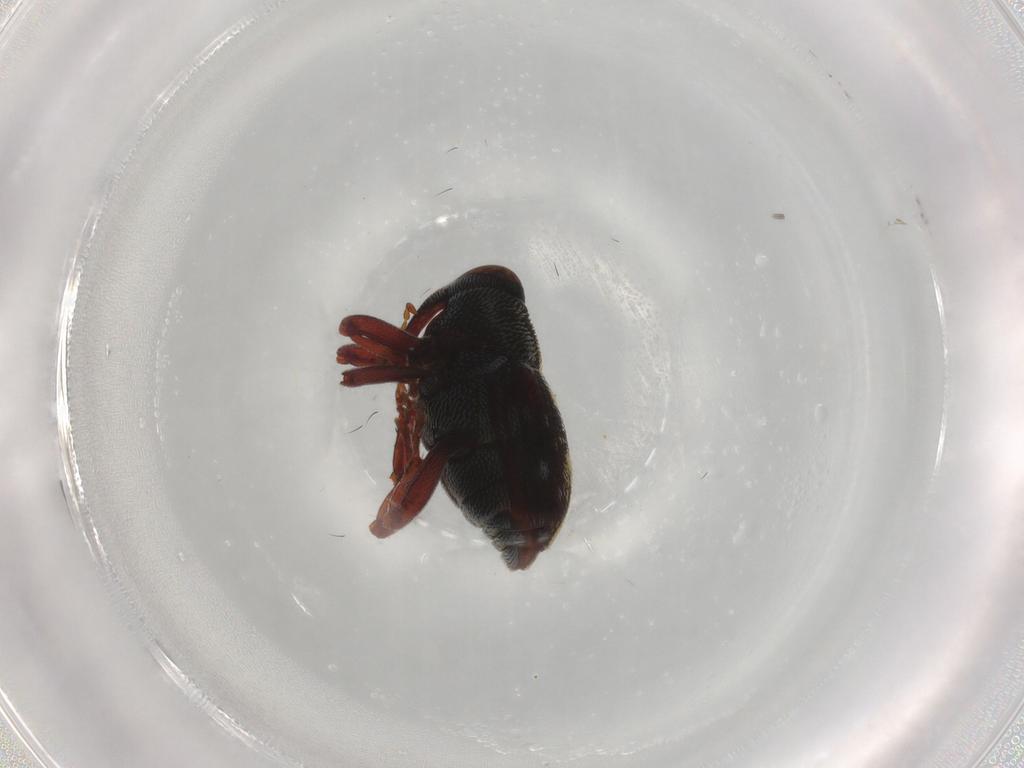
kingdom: Animalia
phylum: Arthropoda
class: Insecta
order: Coleoptera
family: Curculionidae
